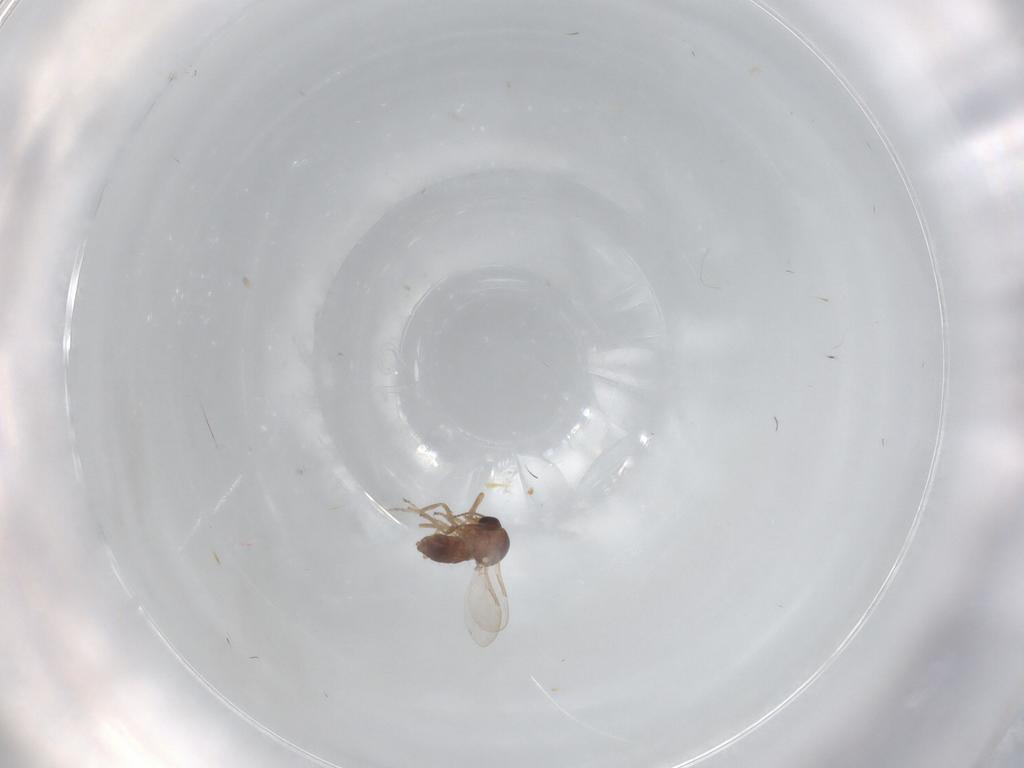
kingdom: Animalia
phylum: Arthropoda
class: Insecta
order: Diptera
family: Ceratopogonidae
